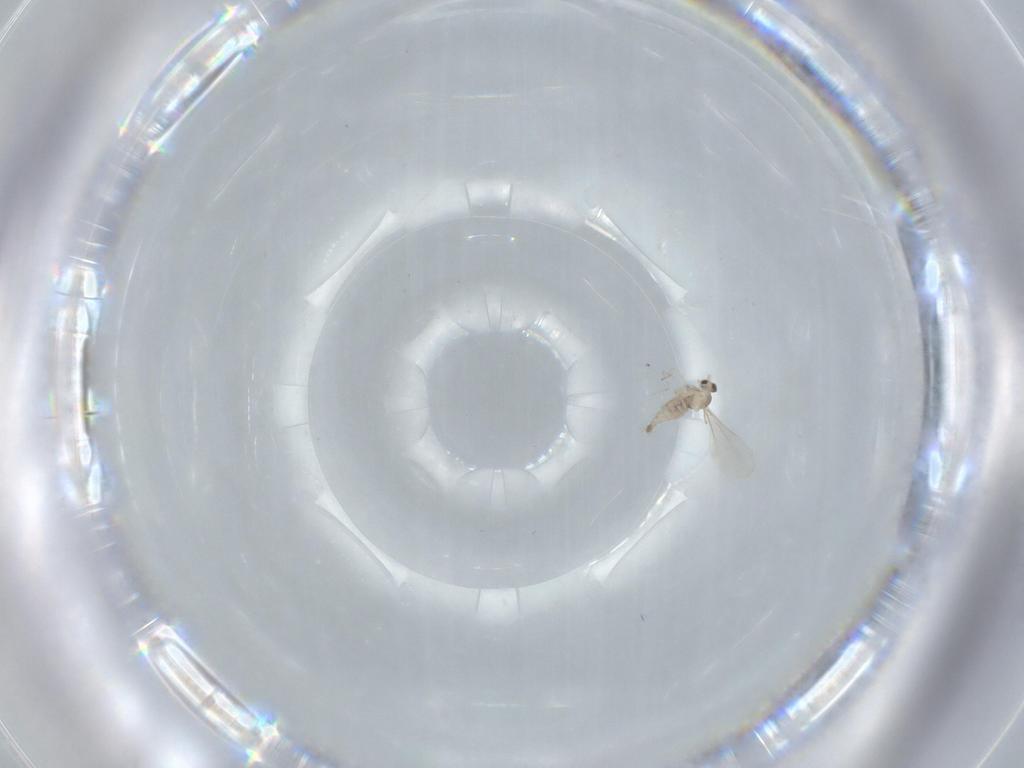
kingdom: Animalia
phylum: Arthropoda
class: Insecta
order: Diptera
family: Cecidomyiidae
